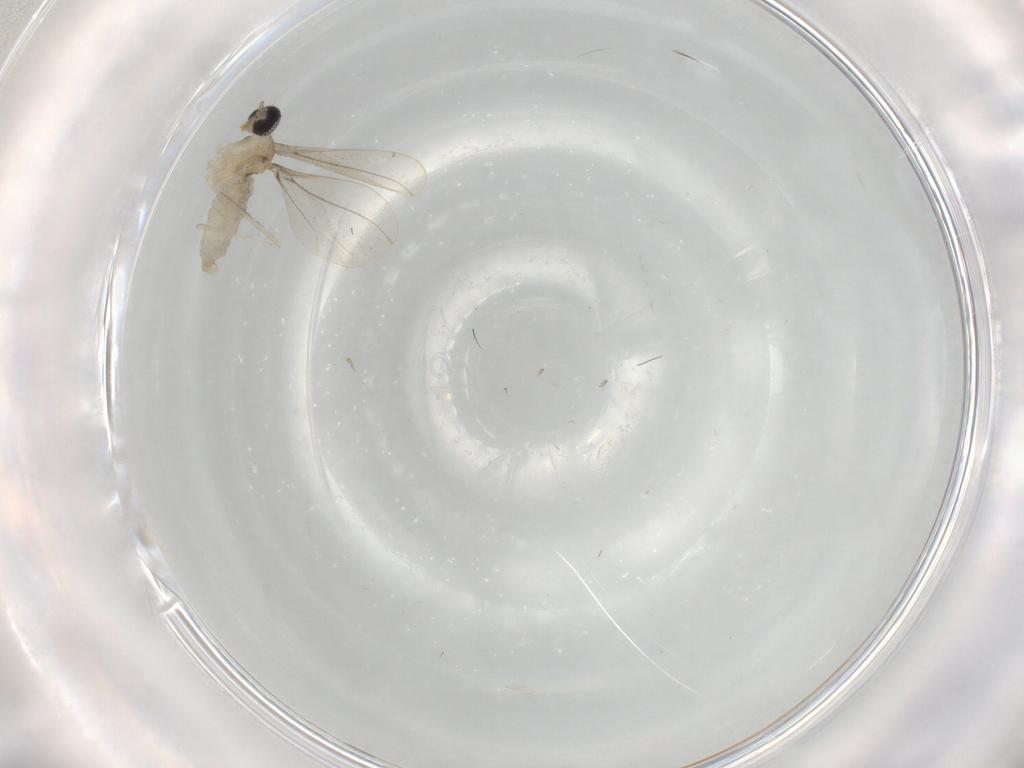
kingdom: Animalia
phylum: Arthropoda
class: Insecta
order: Diptera
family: Cecidomyiidae
